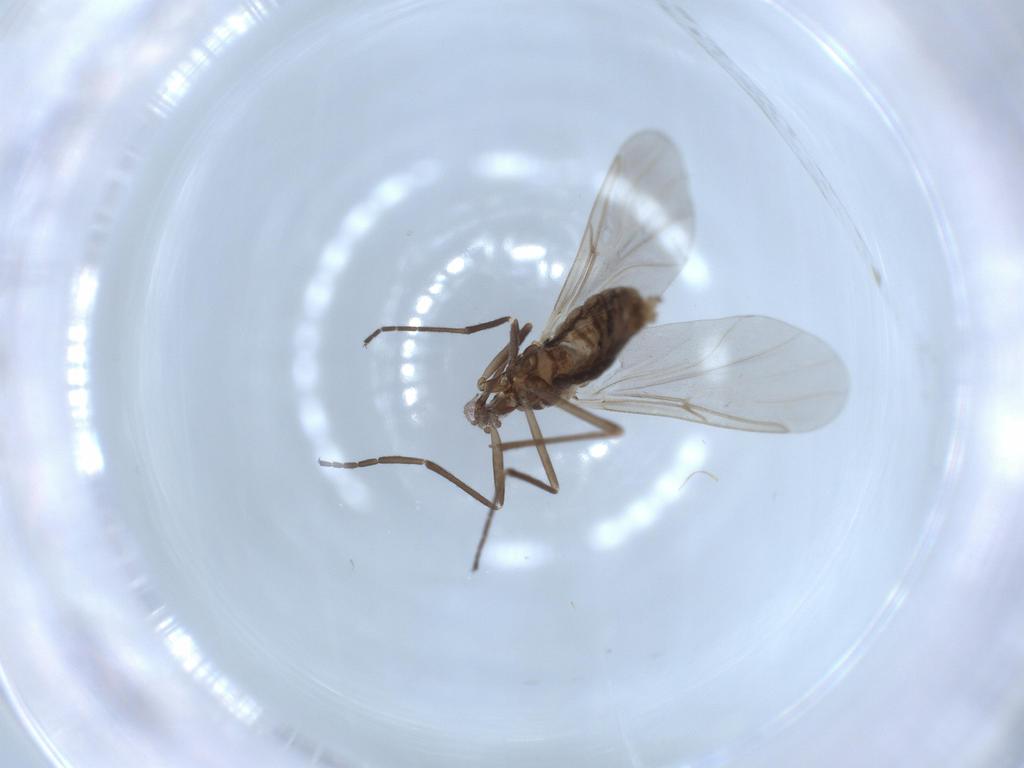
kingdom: Animalia
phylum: Arthropoda
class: Insecta
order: Diptera
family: Cecidomyiidae
